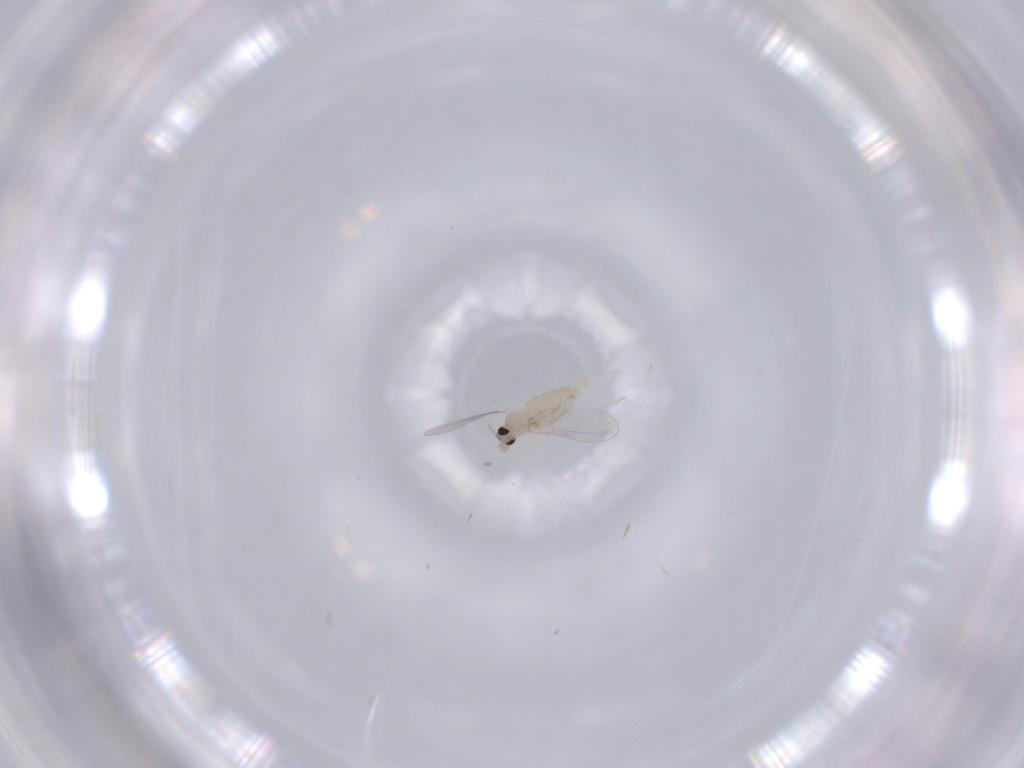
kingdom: Animalia
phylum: Arthropoda
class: Insecta
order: Diptera
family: Cecidomyiidae
